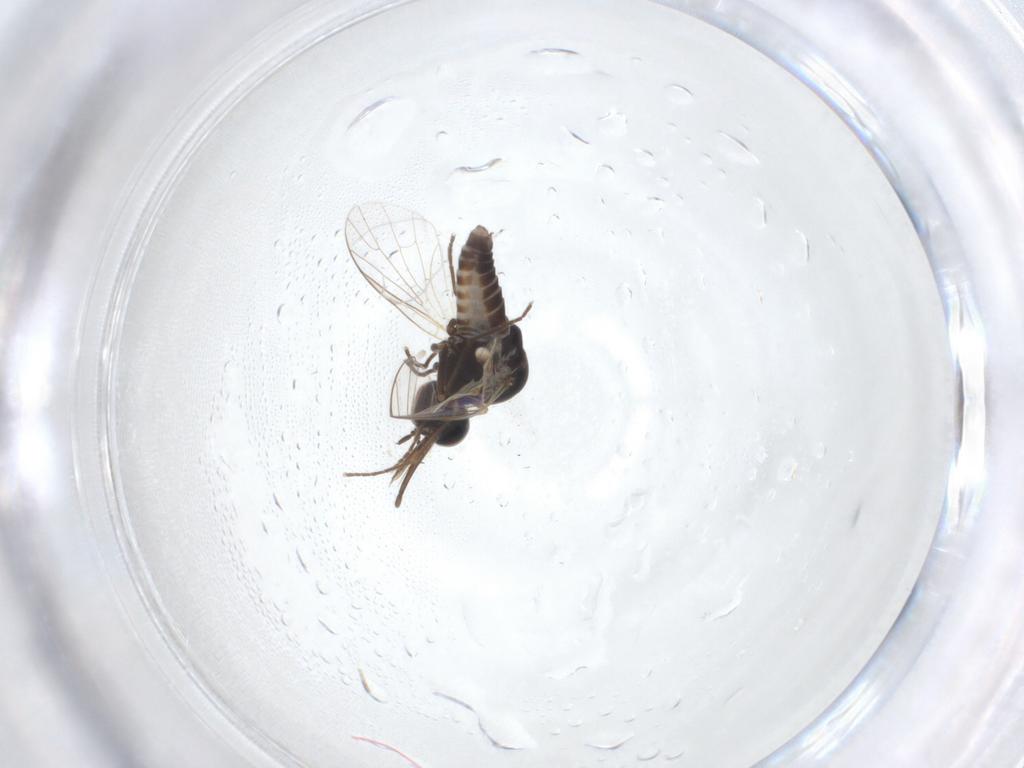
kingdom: Animalia
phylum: Arthropoda
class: Insecta
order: Diptera
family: Bombyliidae
